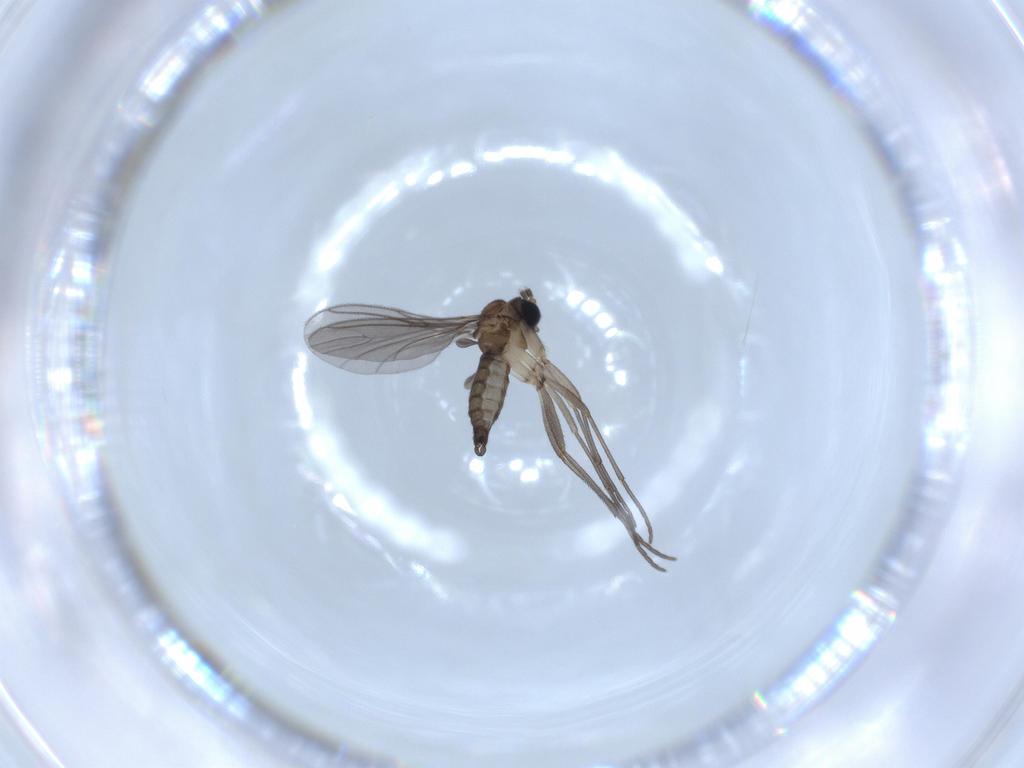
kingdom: Animalia
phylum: Arthropoda
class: Insecta
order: Diptera
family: Sciaridae
